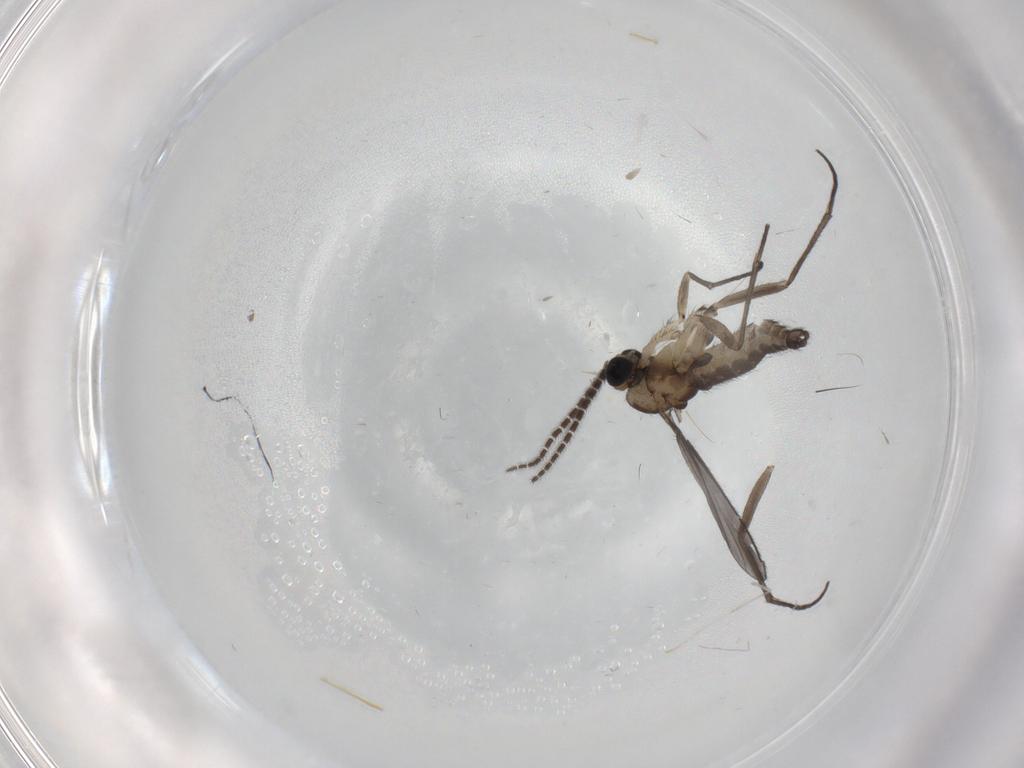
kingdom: Animalia
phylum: Arthropoda
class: Insecta
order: Diptera
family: Sciaridae
